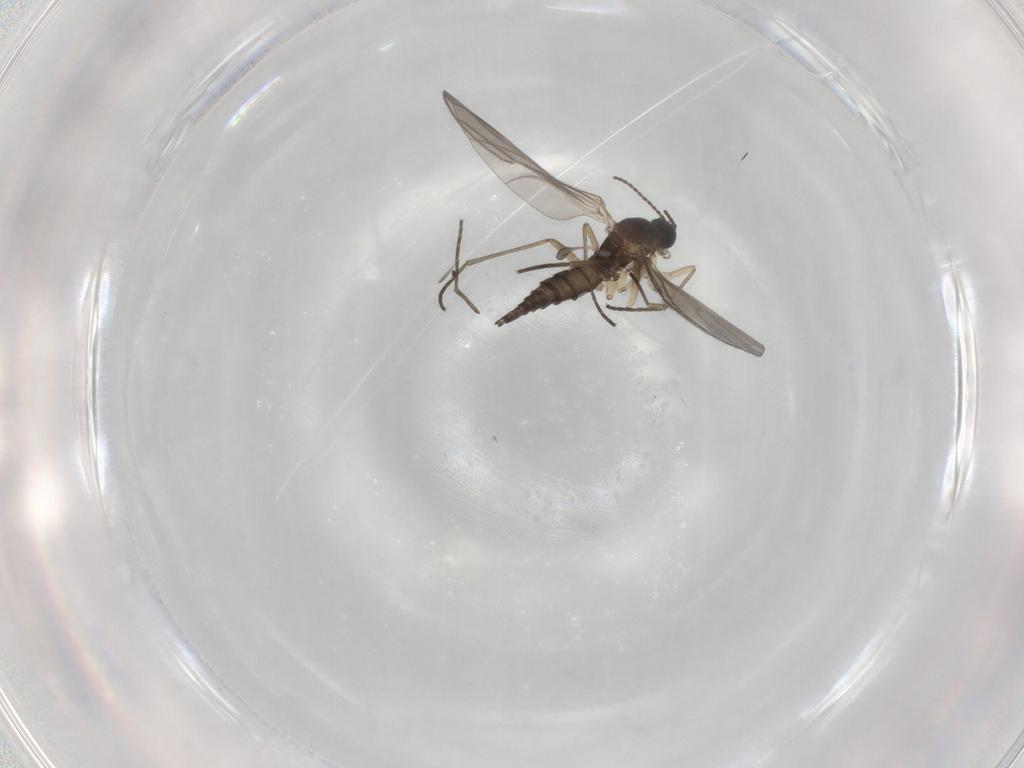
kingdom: Animalia
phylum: Arthropoda
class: Insecta
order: Diptera
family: Sciaridae
